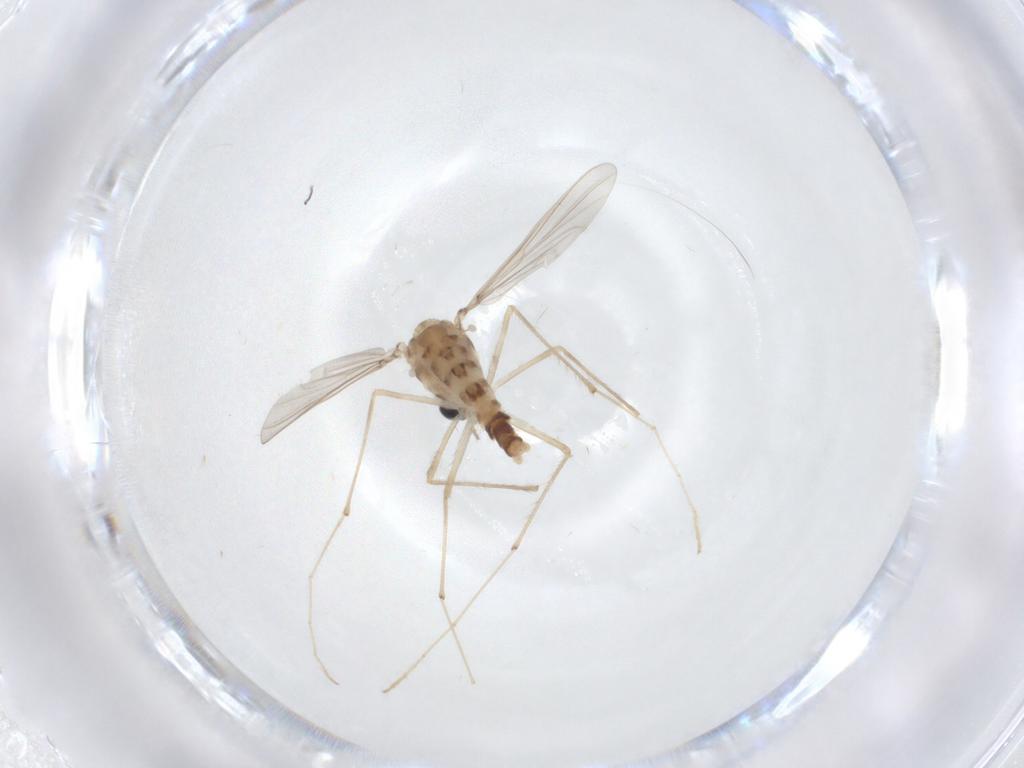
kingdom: Animalia
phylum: Arthropoda
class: Insecta
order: Diptera
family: Chironomidae
